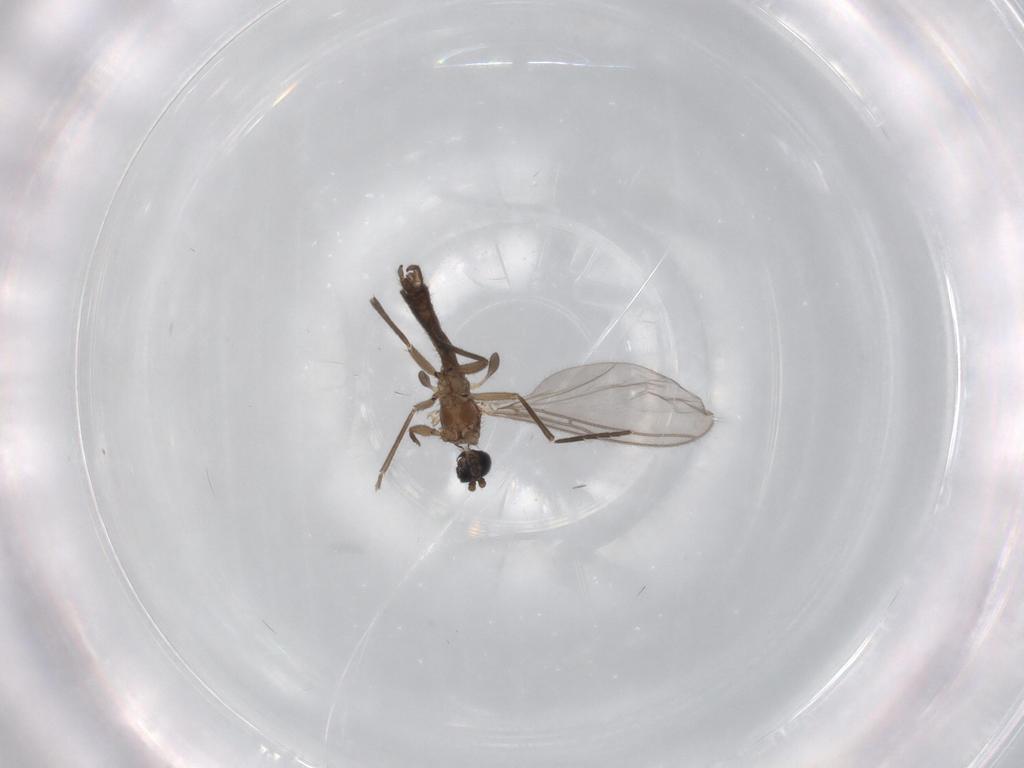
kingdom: Animalia
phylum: Arthropoda
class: Insecta
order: Diptera
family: Sciaridae
